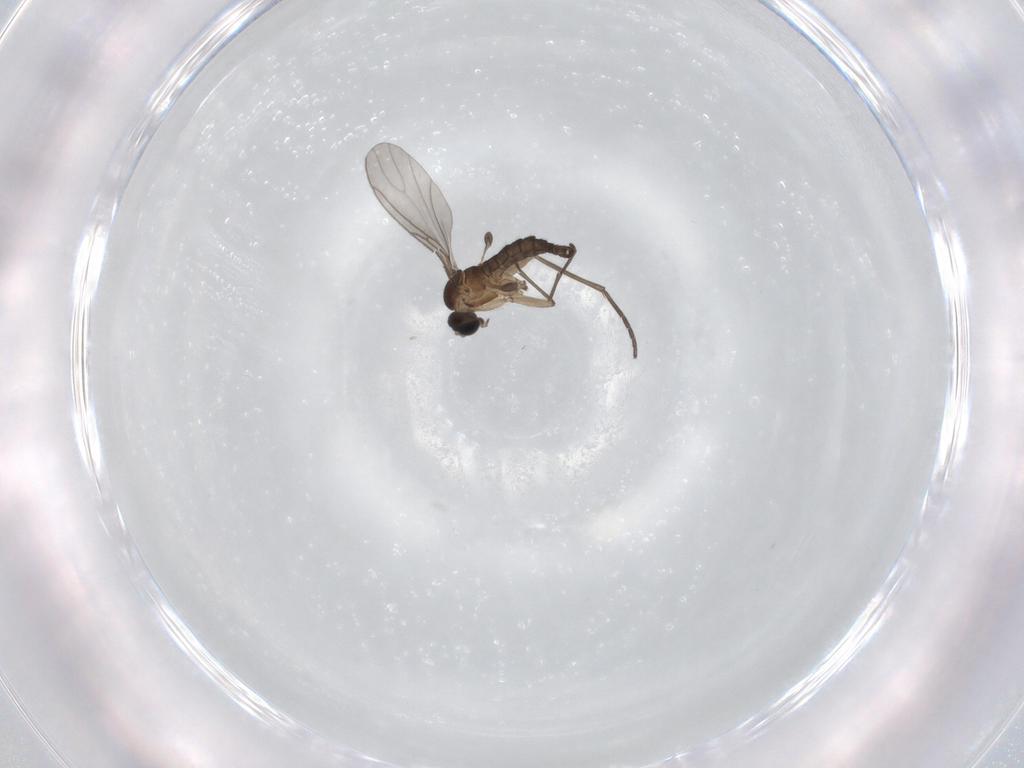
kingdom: Animalia
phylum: Arthropoda
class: Insecta
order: Diptera
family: Sciaridae
